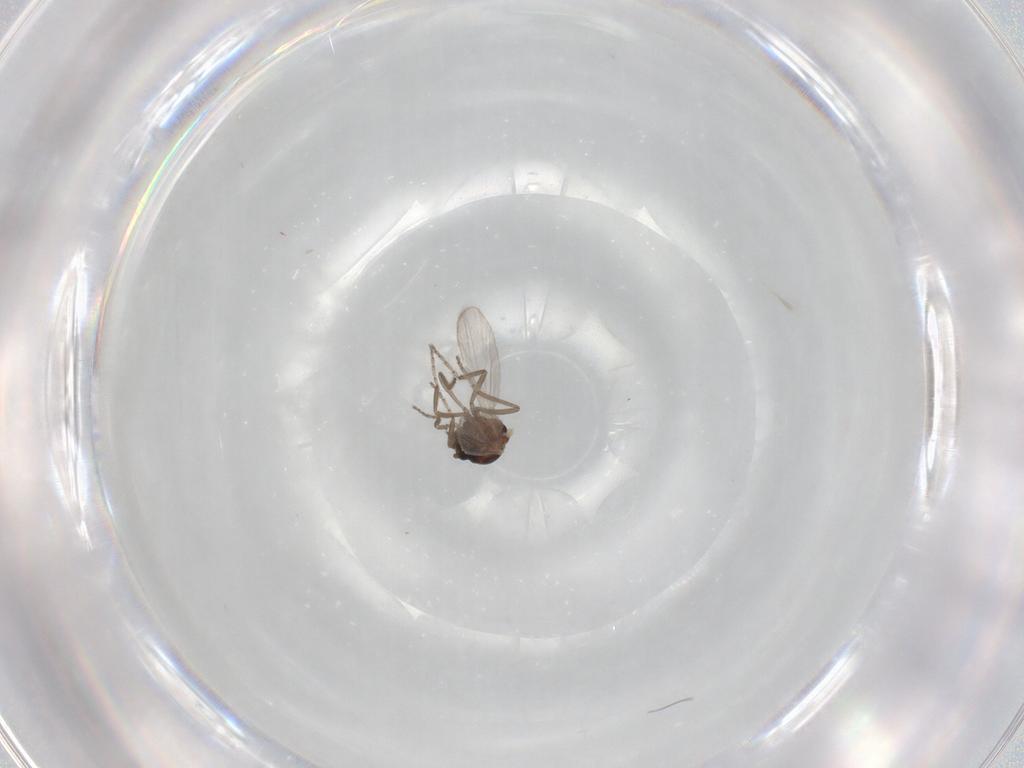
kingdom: Animalia
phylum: Arthropoda
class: Insecta
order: Diptera
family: Ceratopogonidae
